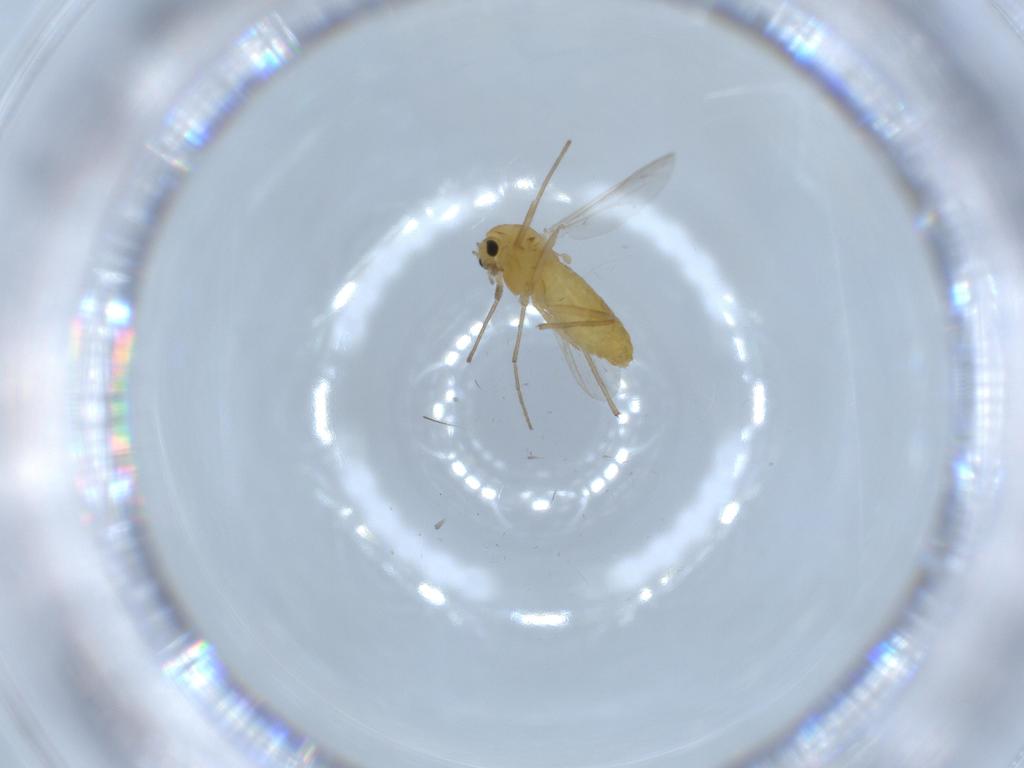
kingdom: Animalia
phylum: Arthropoda
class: Insecta
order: Diptera
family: Chironomidae
